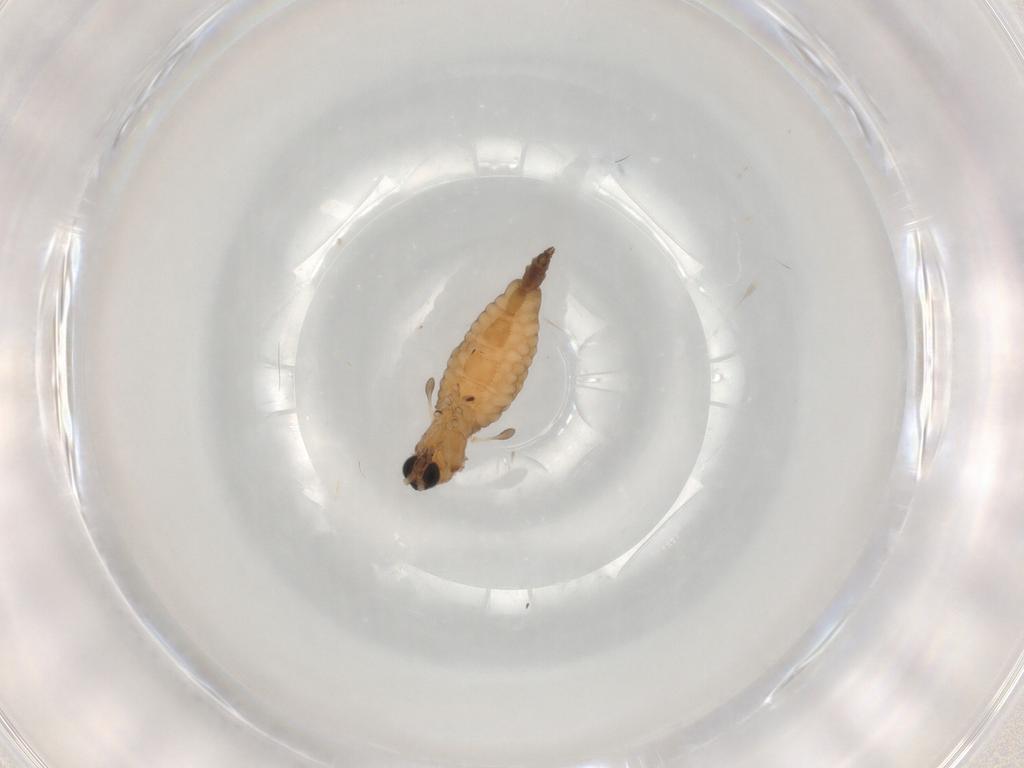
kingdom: Animalia
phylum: Arthropoda
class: Insecta
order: Diptera
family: Sciaridae
